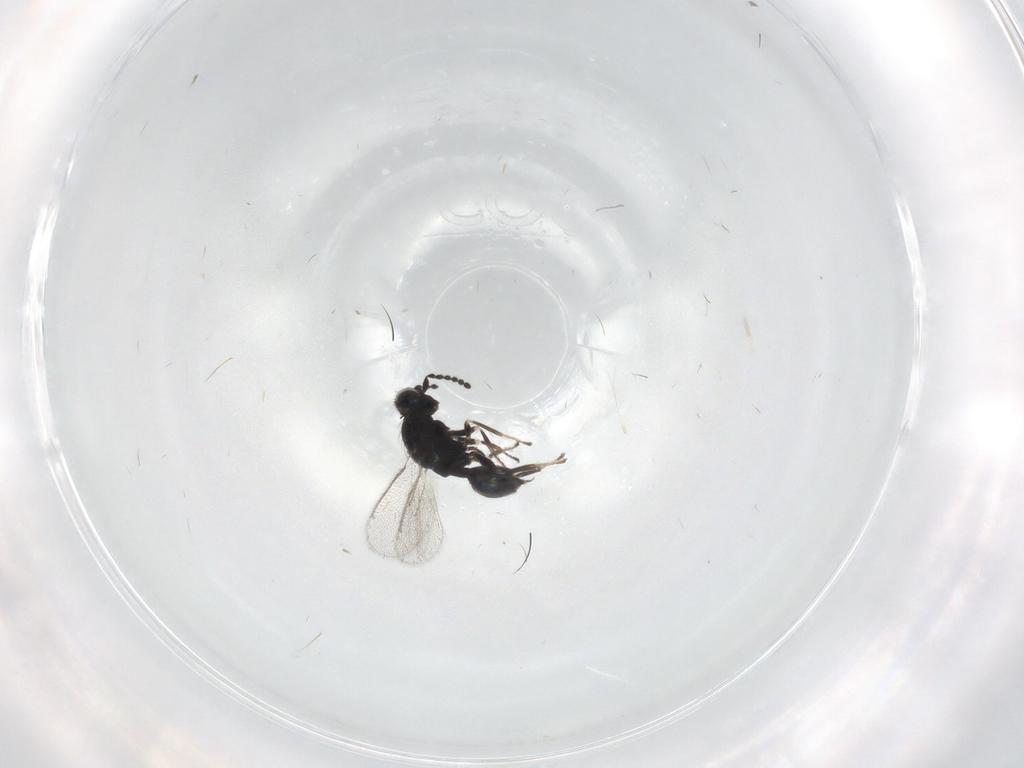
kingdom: Animalia
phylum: Arthropoda
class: Insecta
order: Hymenoptera
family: Eulophidae
